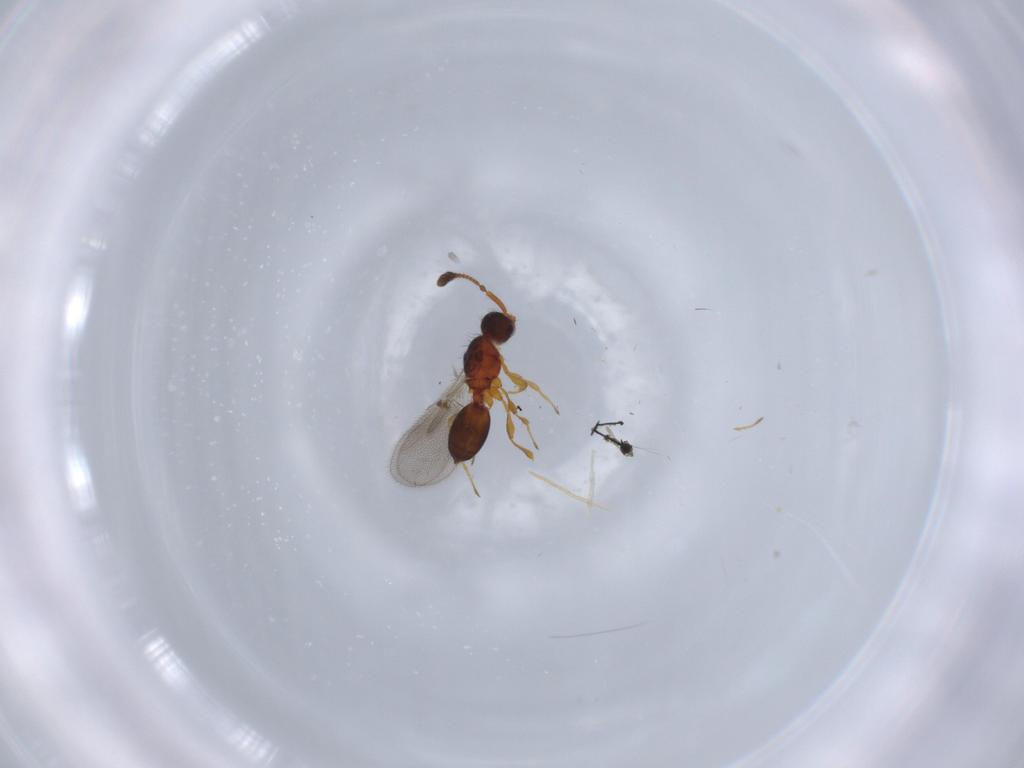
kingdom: Animalia
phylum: Arthropoda
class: Insecta
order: Hymenoptera
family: Diapriidae
